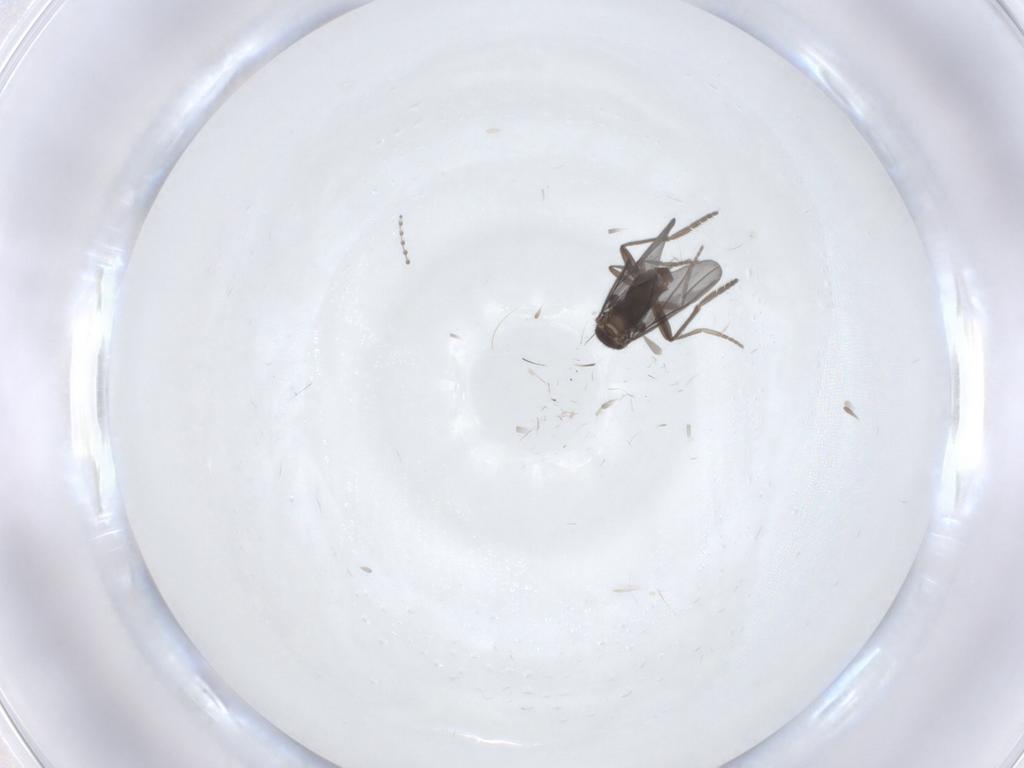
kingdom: Animalia
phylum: Arthropoda
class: Insecta
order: Diptera
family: Phoridae
